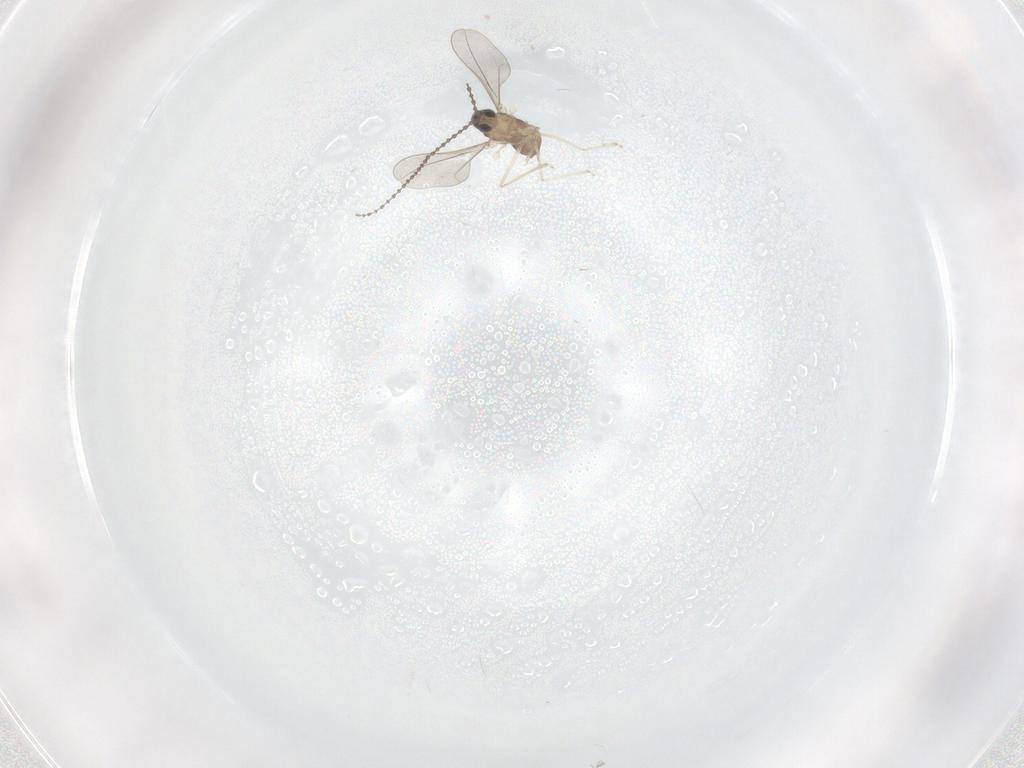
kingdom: Animalia
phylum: Arthropoda
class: Insecta
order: Diptera
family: Cecidomyiidae
